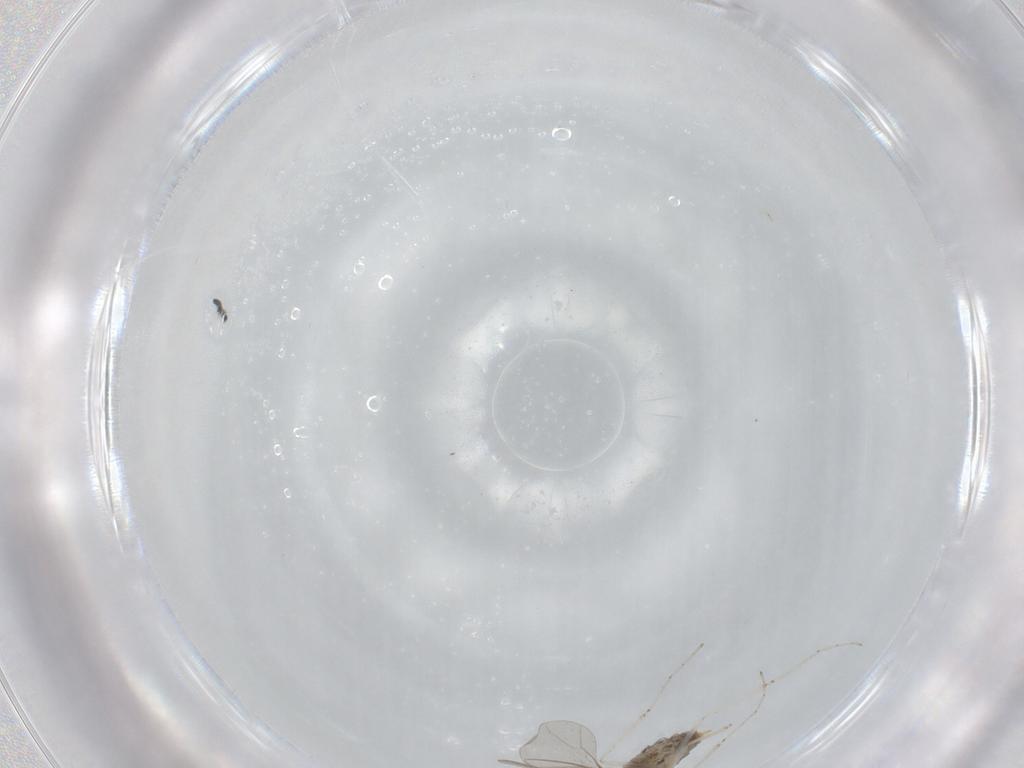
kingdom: Animalia
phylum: Arthropoda
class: Insecta
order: Diptera
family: Cecidomyiidae
